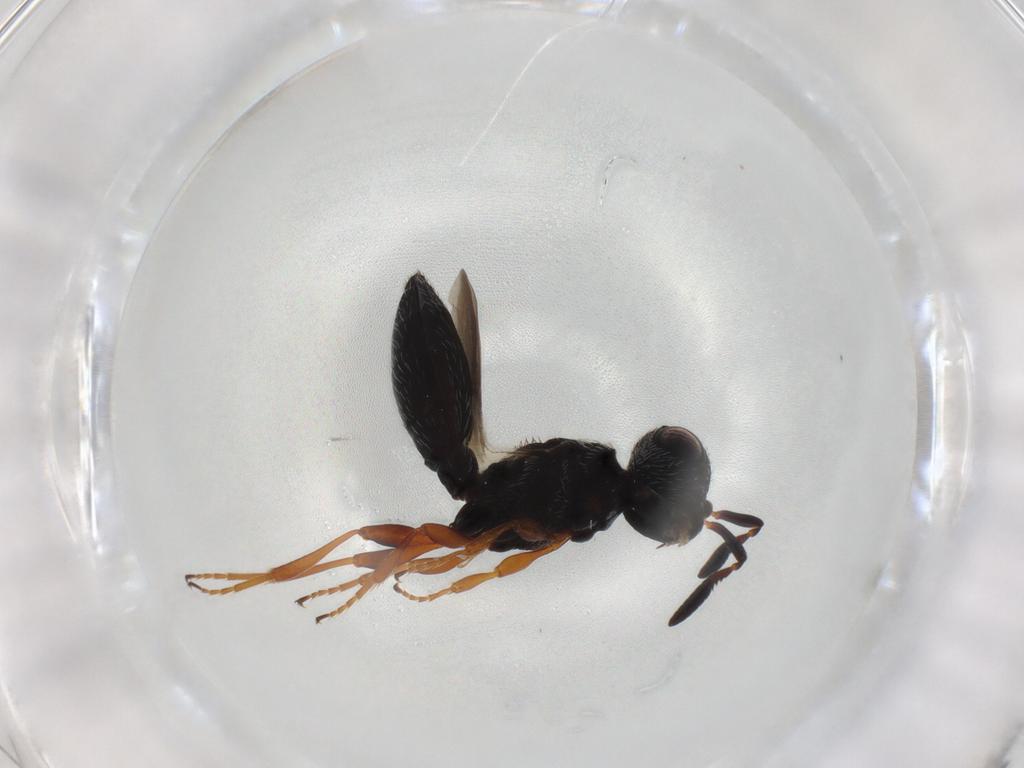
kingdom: Animalia
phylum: Arthropoda
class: Insecta
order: Hymenoptera
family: Scelionidae
